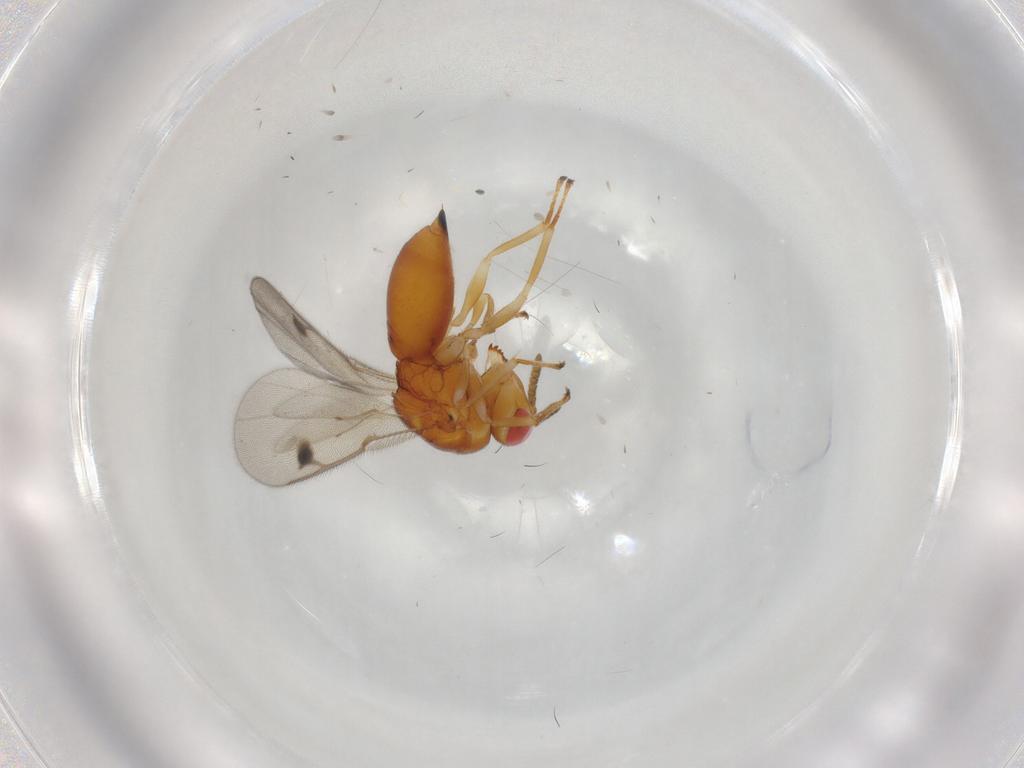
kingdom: Animalia
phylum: Arthropoda
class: Insecta
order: Hymenoptera
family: Eurytomidae
